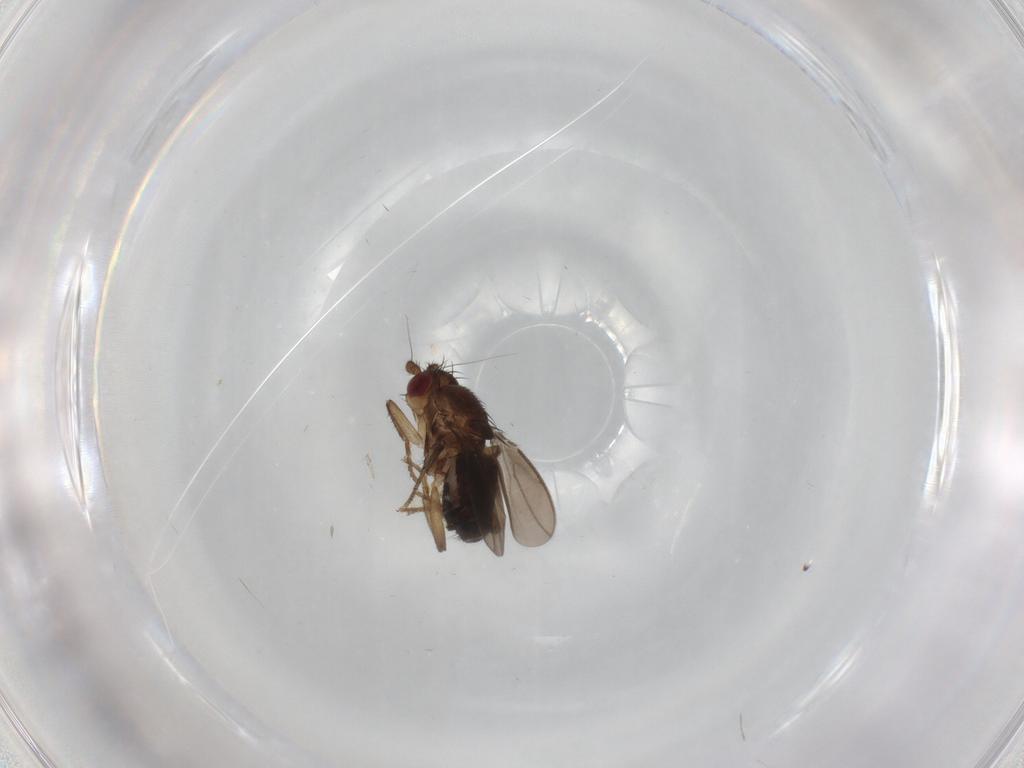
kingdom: Animalia
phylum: Arthropoda
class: Insecta
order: Diptera
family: Sphaeroceridae
